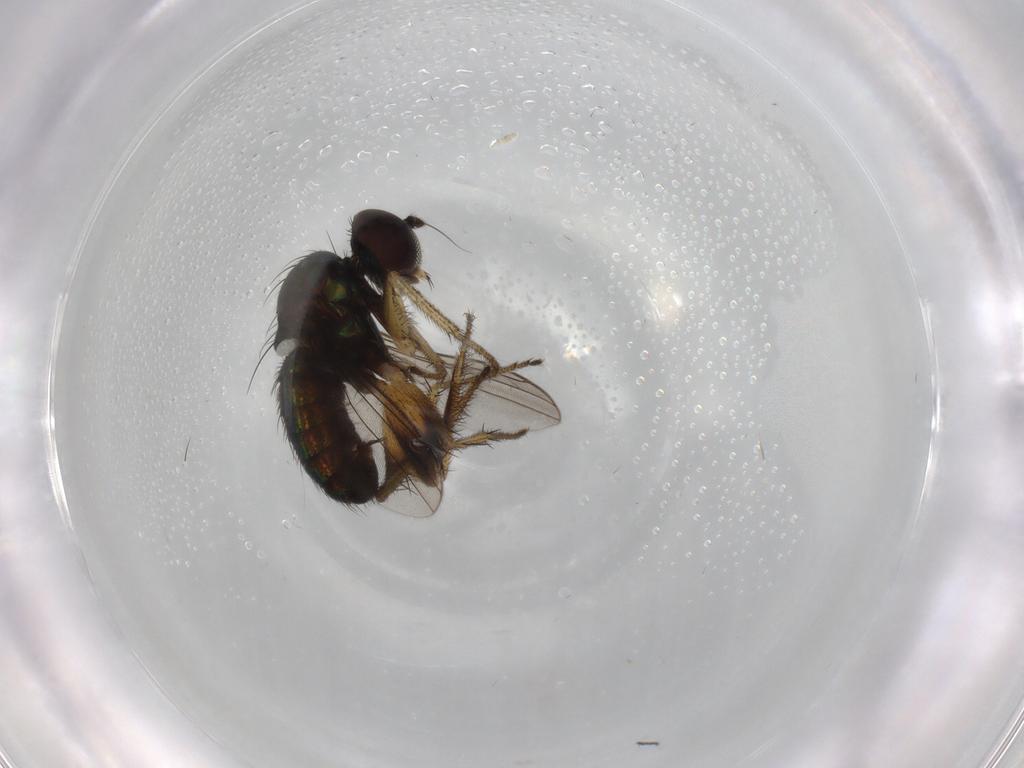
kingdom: Animalia
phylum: Arthropoda
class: Insecta
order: Diptera
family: Dolichopodidae
